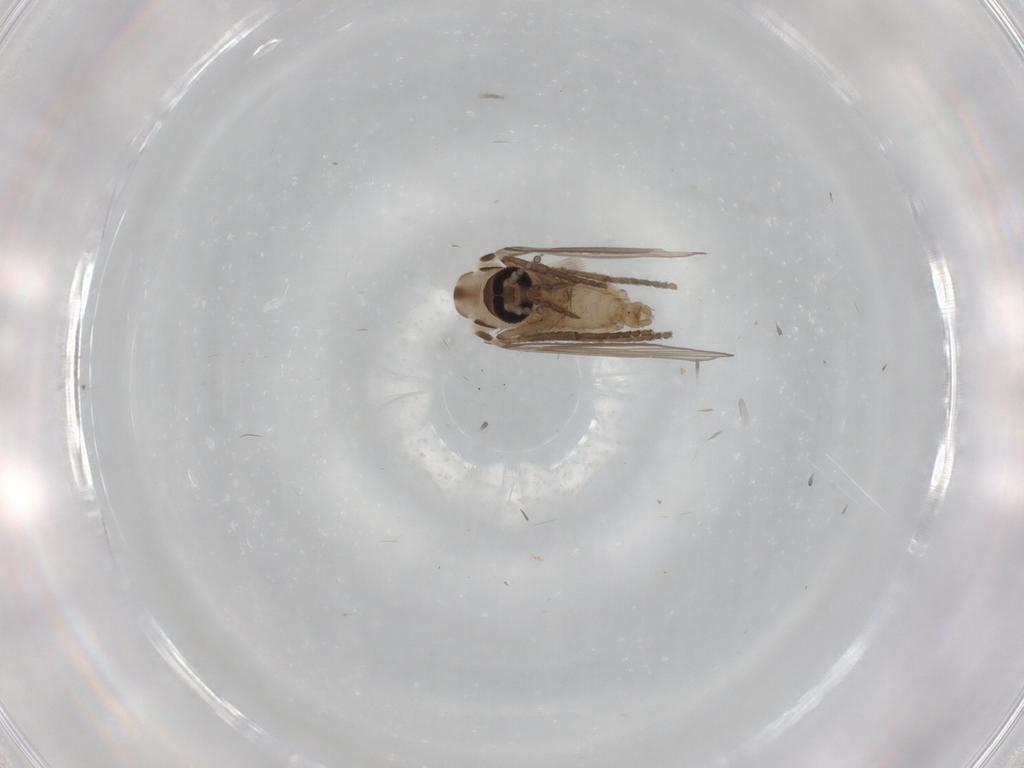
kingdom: Animalia
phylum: Arthropoda
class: Insecta
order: Diptera
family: Psychodidae
